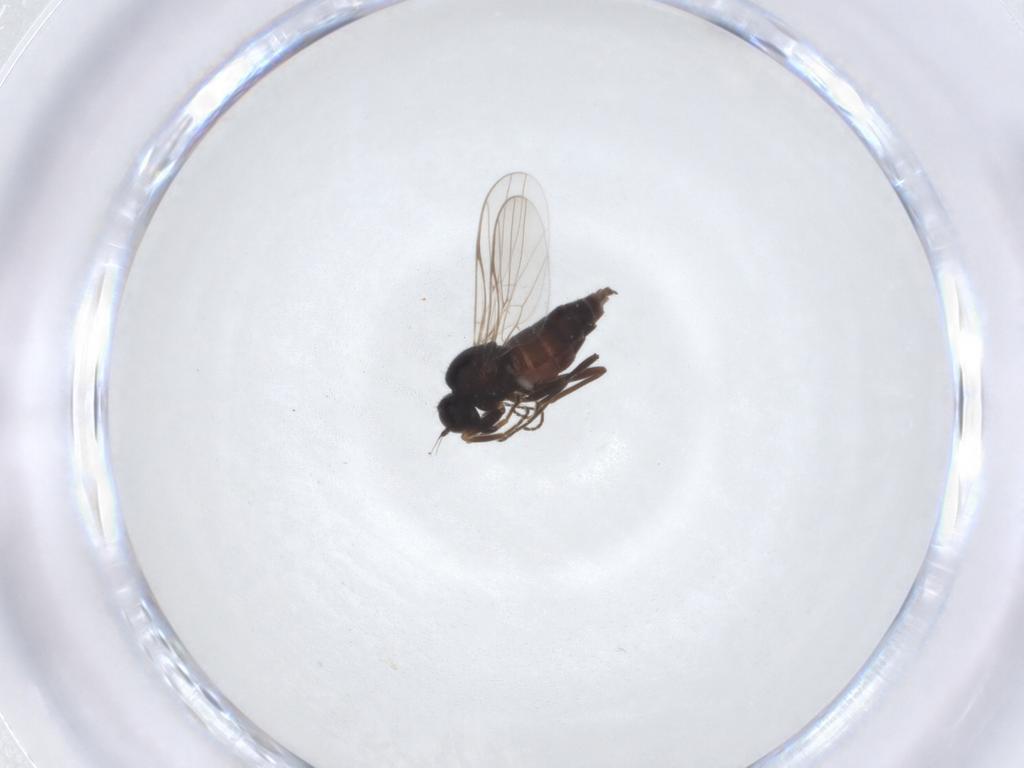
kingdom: Animalia
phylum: Arthropoda
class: Insecta
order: Diptera
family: Hybotidae
